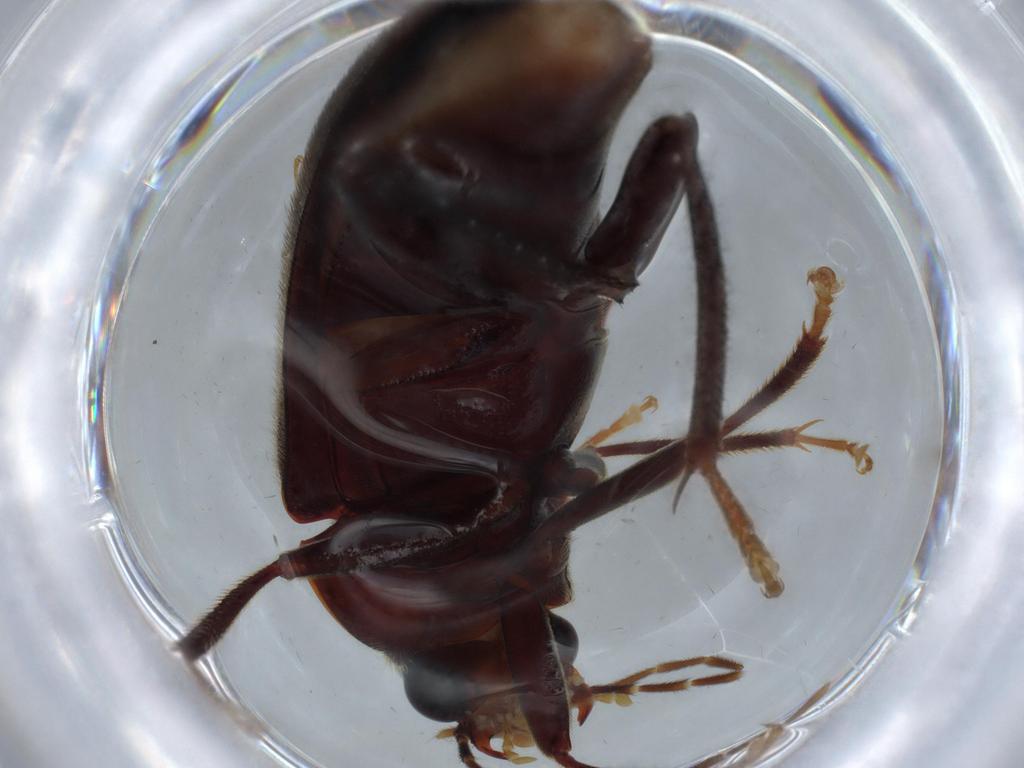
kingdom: Animalia
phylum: Arthropoda
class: Insecta
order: Coleoptera
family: Ptilodactylidae
